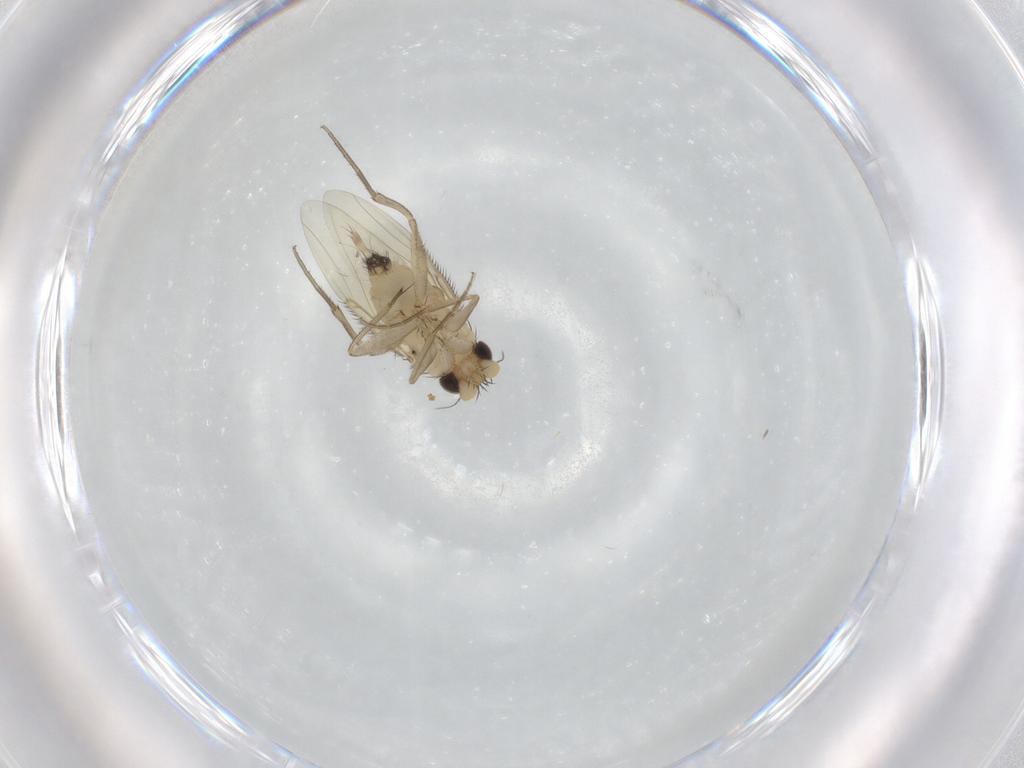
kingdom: Animalia
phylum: Arthropoda
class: Insecta
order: Diptera
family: Phoridae
